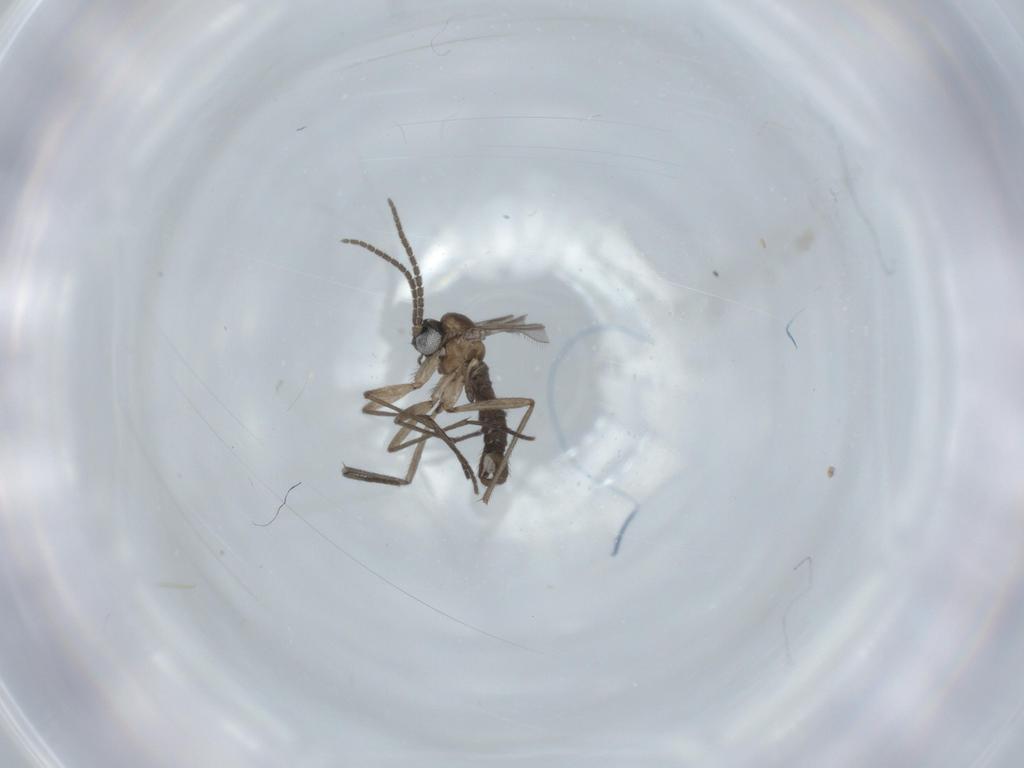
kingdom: Animalia
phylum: Arthropoda
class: Insecta
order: Diptera
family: Sciaridae
